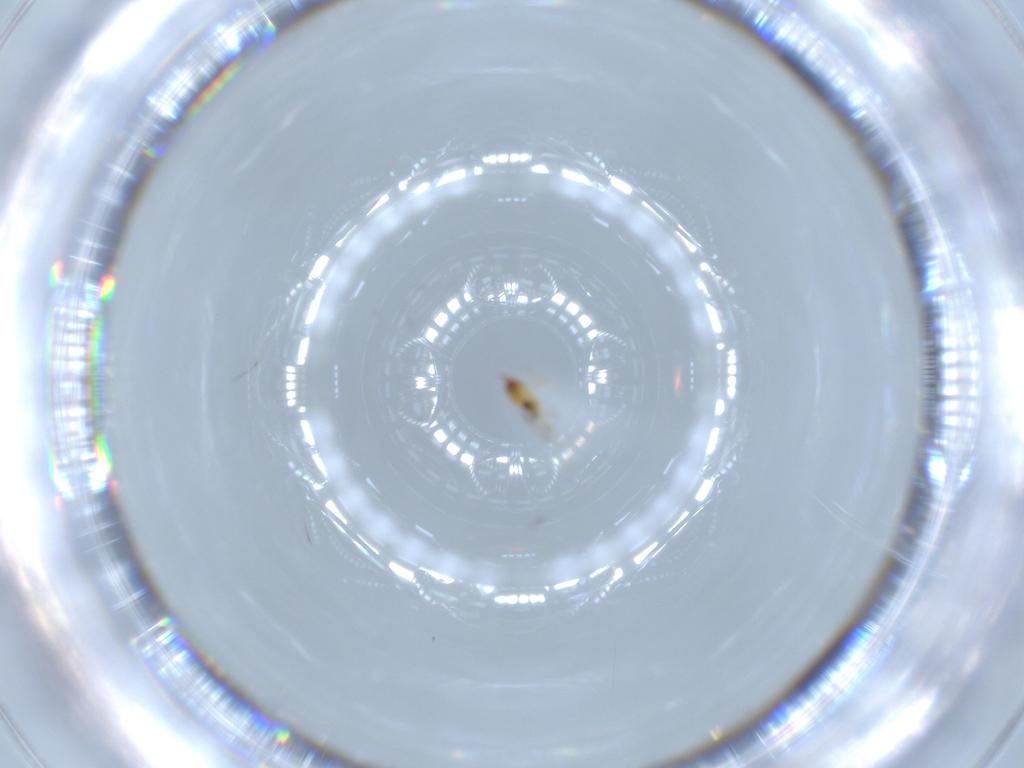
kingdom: Animalia
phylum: Arthropoda
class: Insecta
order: Hymenoptera
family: Trichogrammatidae
